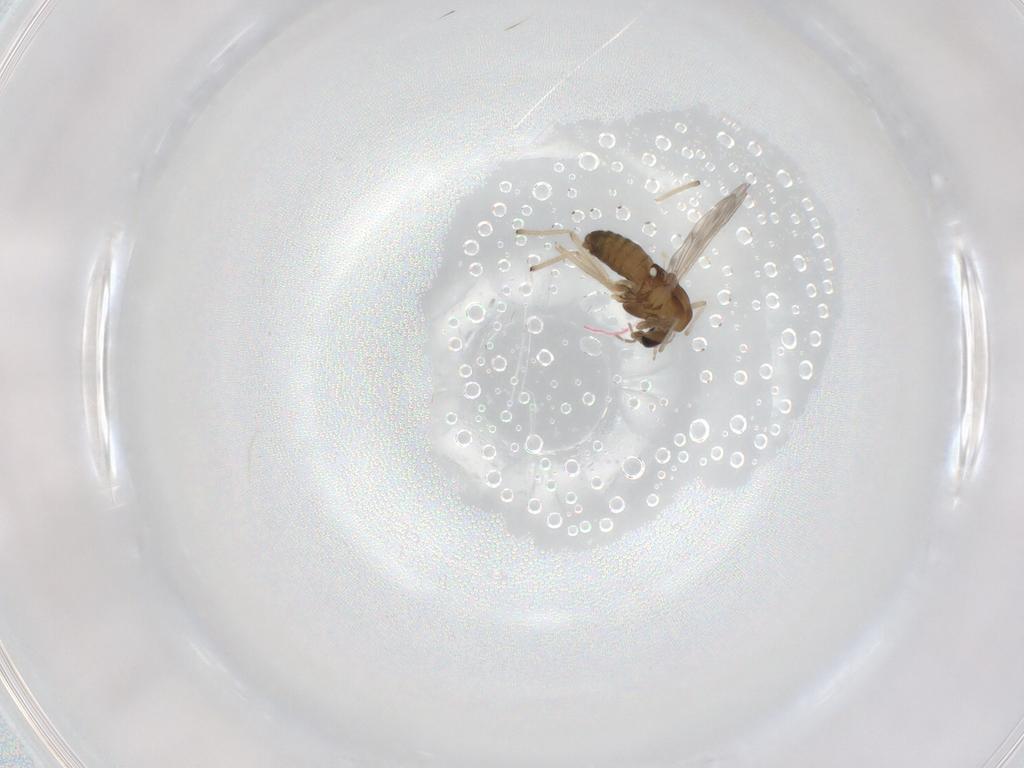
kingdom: Animalia
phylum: Arthropoda
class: Insecta
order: Diptera
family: Chironomidae
